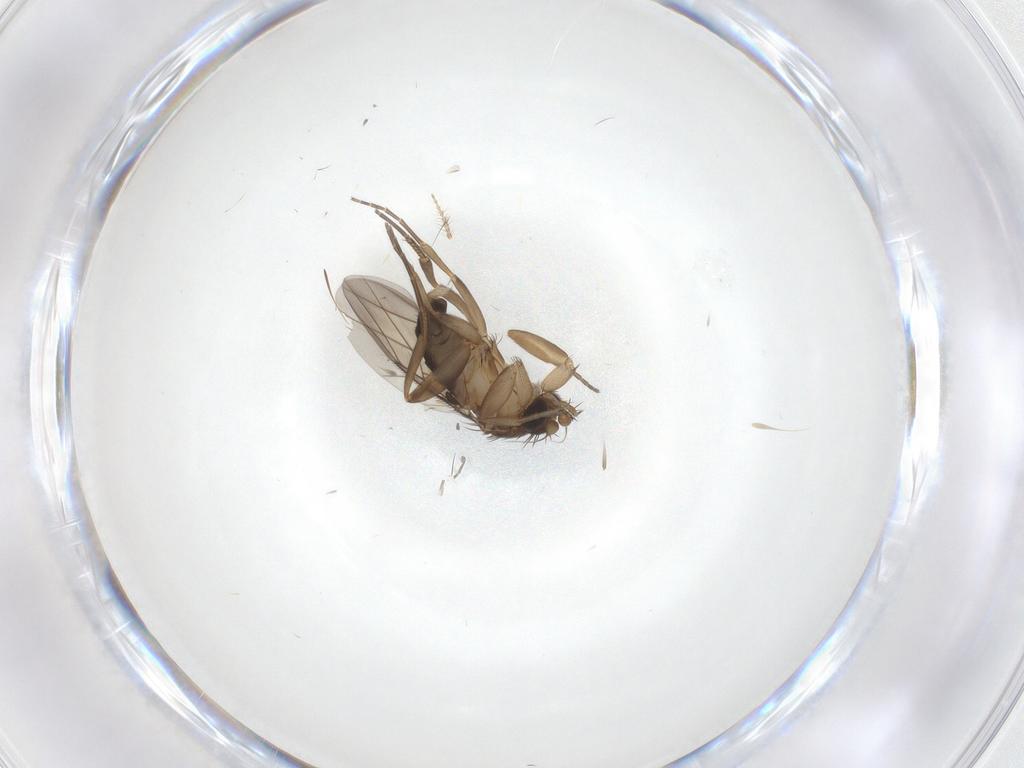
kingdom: Animalia
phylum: Arthropoda
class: Insecta
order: Diptera
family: Phoridae
